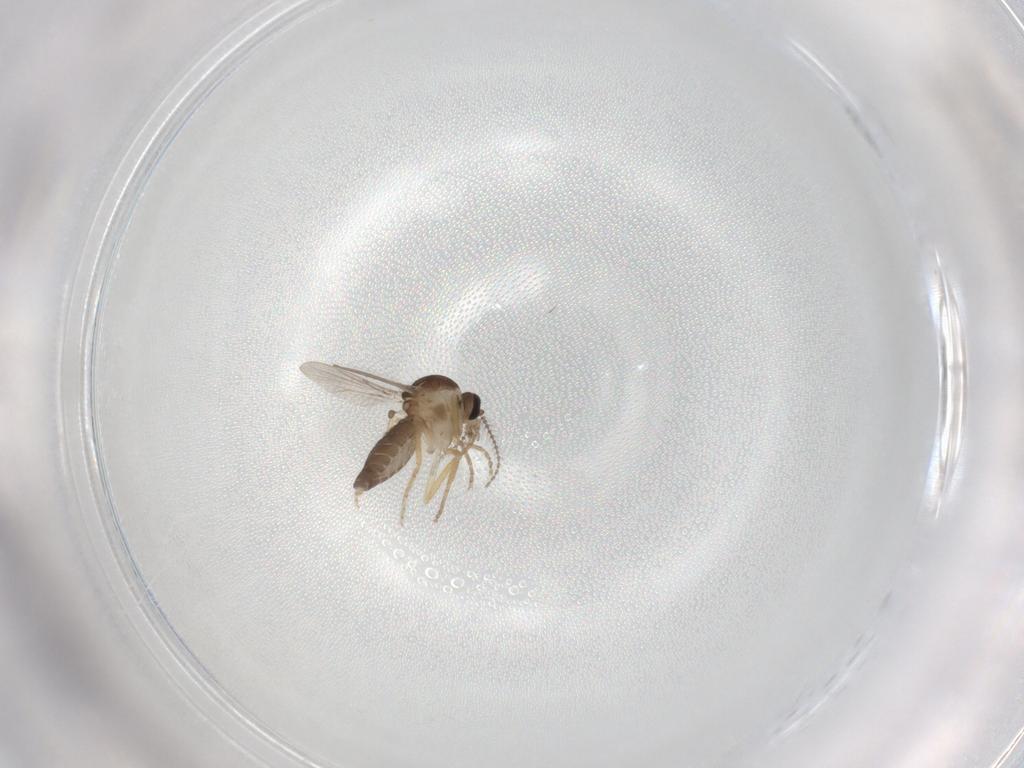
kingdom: Animalia
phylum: Arthropoda
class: Insecta
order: Diptera
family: Ceratopogonidae
